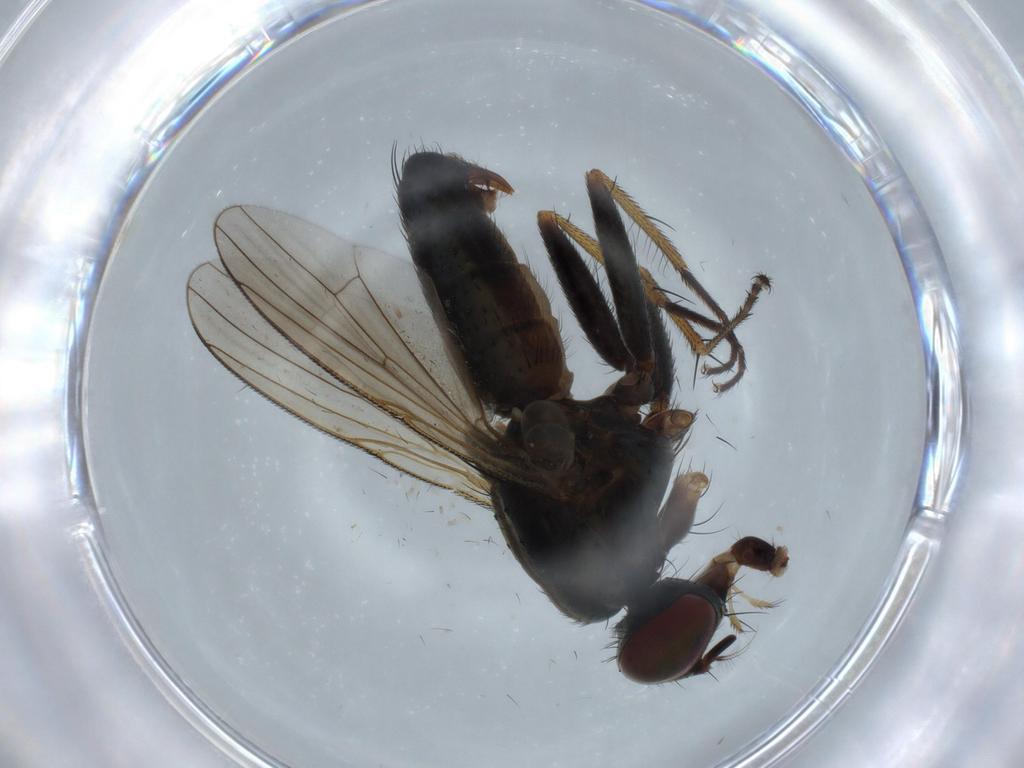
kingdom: Animalia
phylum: Arthropoda
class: Insecta
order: Diptera
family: Muscidae
